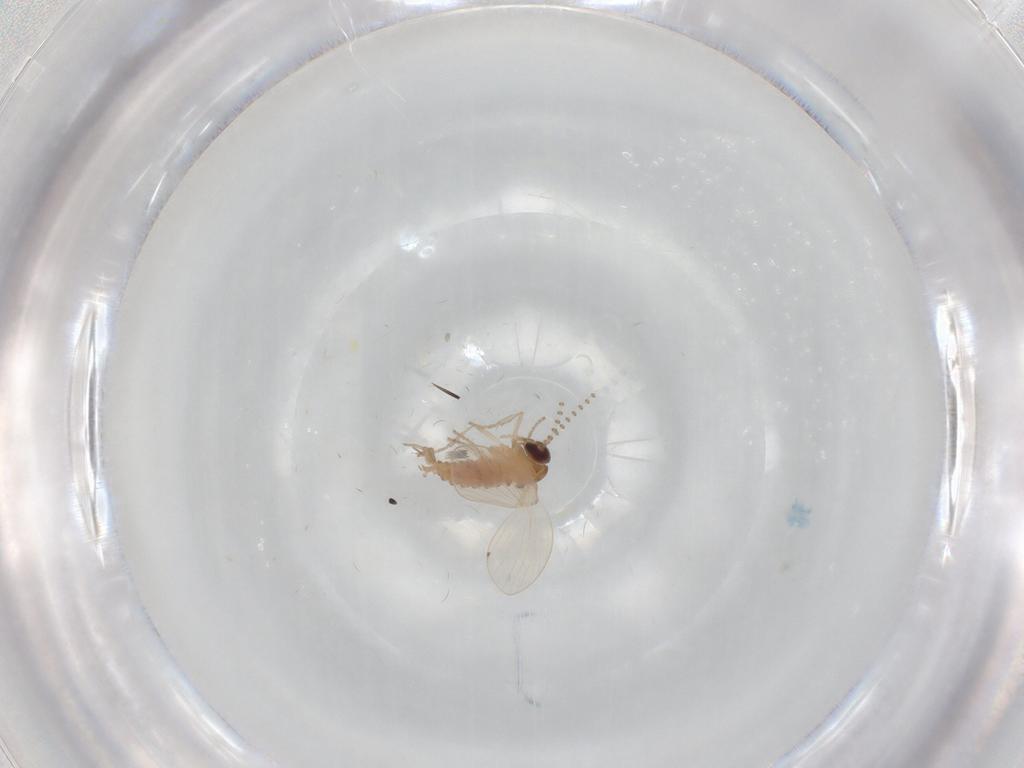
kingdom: Animalia
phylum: Arthropoda
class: Insecta
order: Diptera
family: Psychodidae
